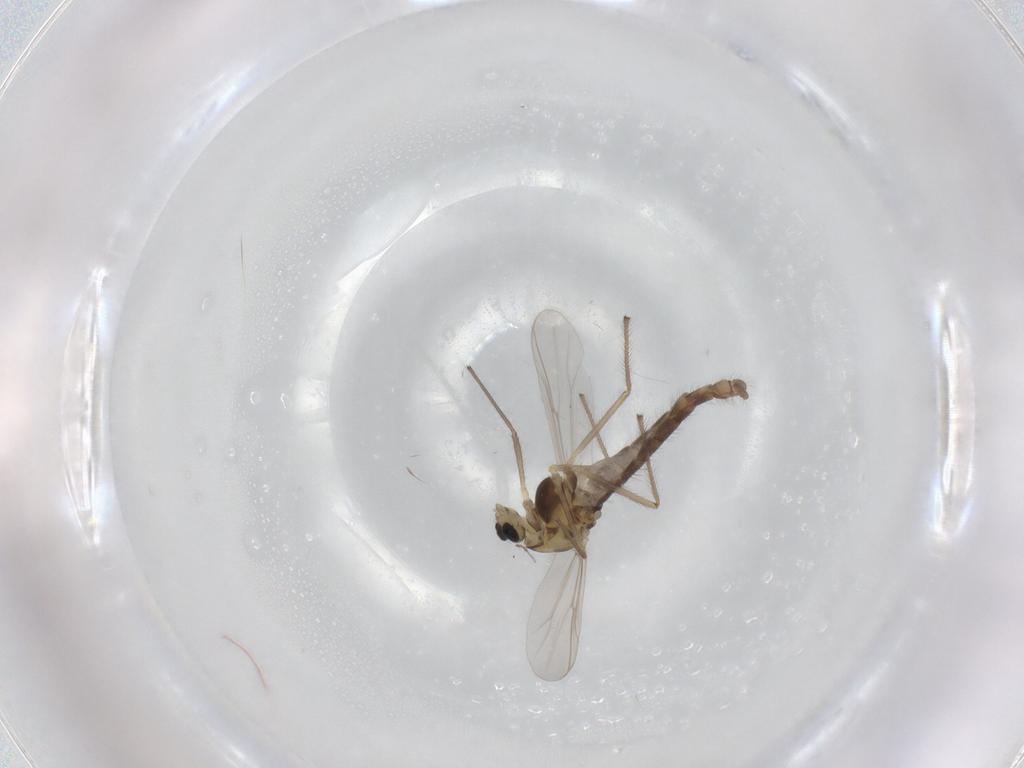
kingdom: Animalia
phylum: Arthropoda
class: Insecta
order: Diptera
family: Chironomidae
